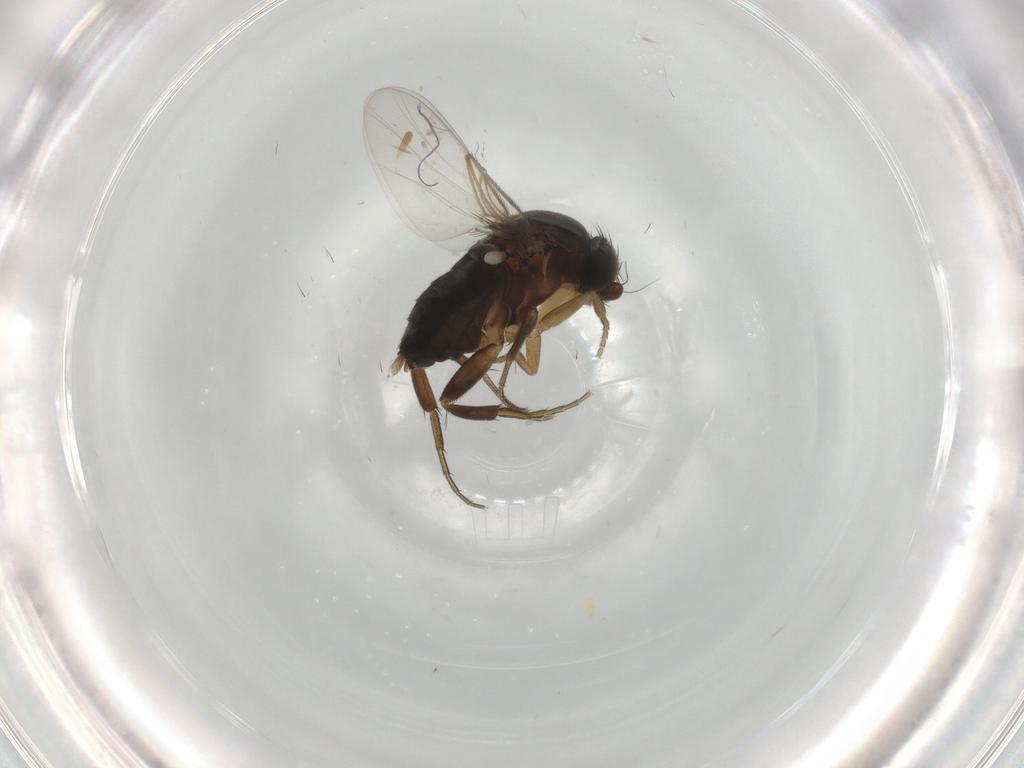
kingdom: Animalia
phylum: Arthropoda
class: Insecta
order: Diptera
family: Phoridae
